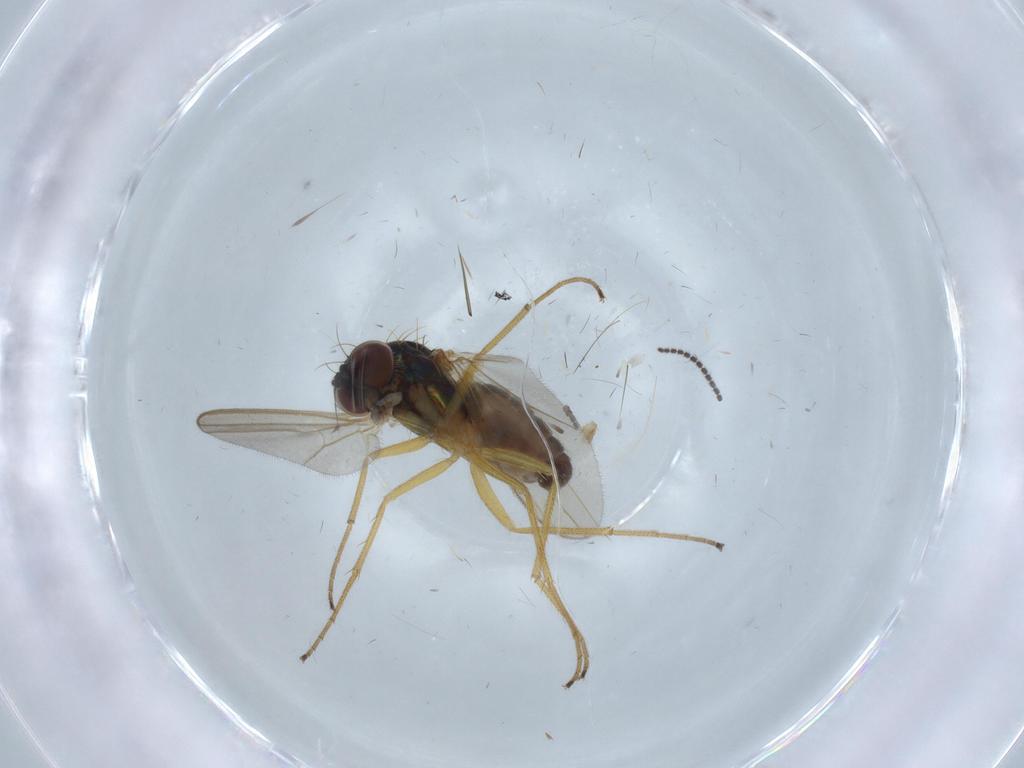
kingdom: Animalia
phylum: Arthropoda
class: Insecta
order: Diptera
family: Dolichopodidae
